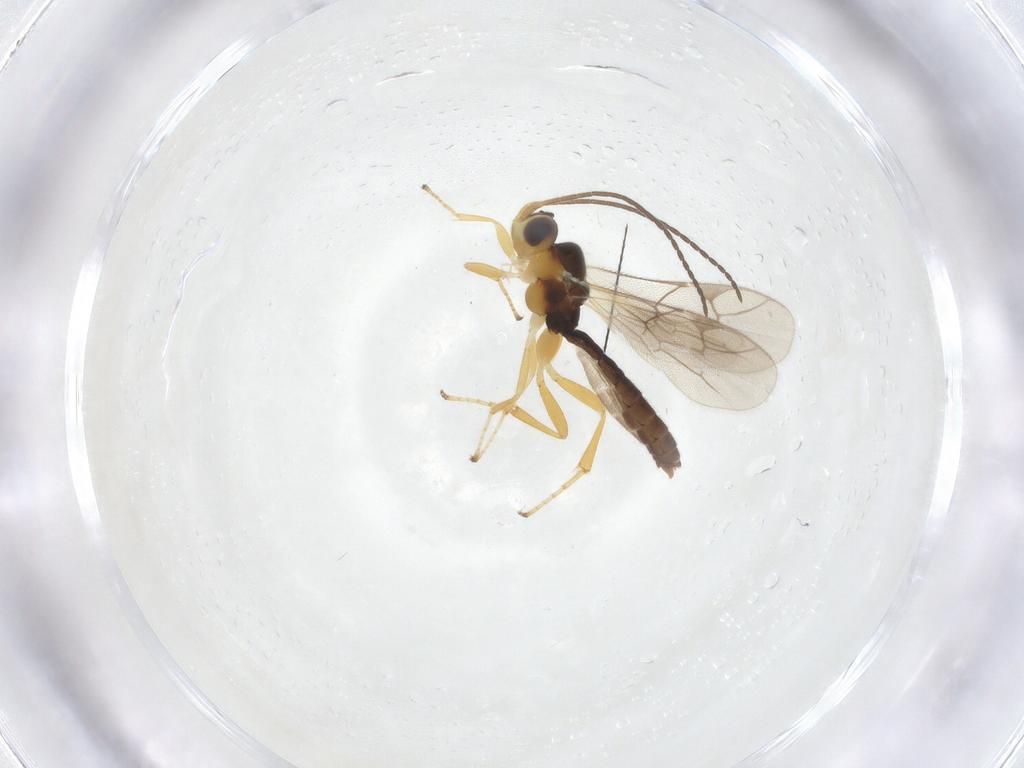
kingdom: Animalia
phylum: Arthropoda
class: Insecta
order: Hymenoptera
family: Ichneumonidae
